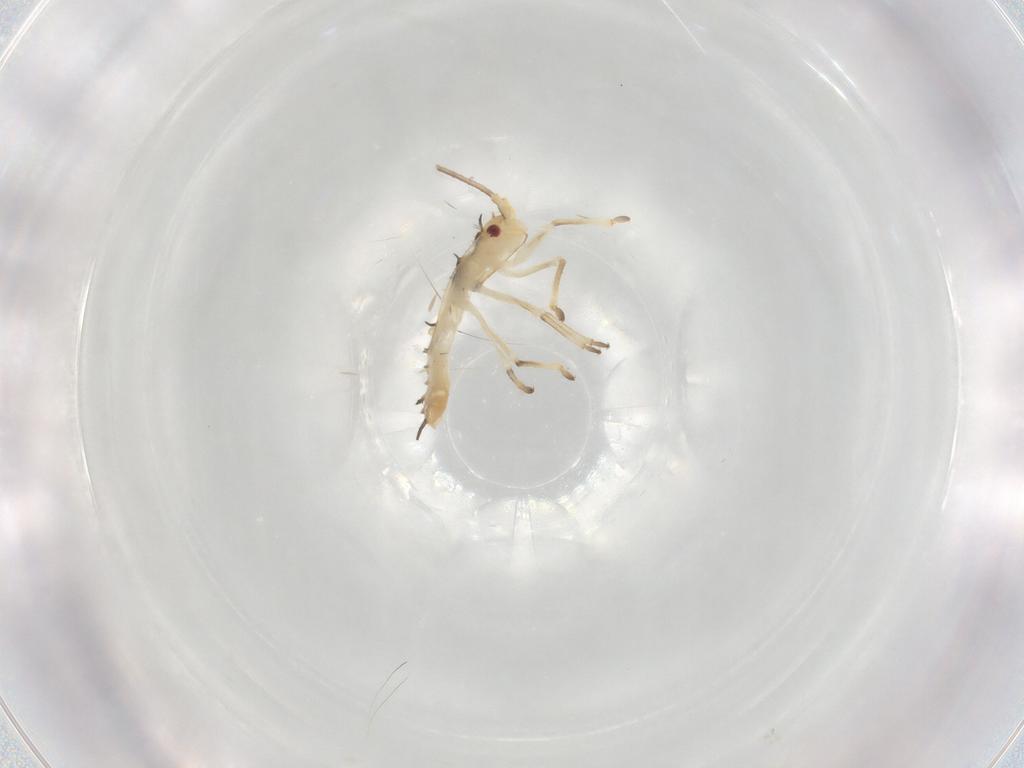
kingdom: Animalia
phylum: Arthropoda
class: Insecta
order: Hemiptera
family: Tingidae
